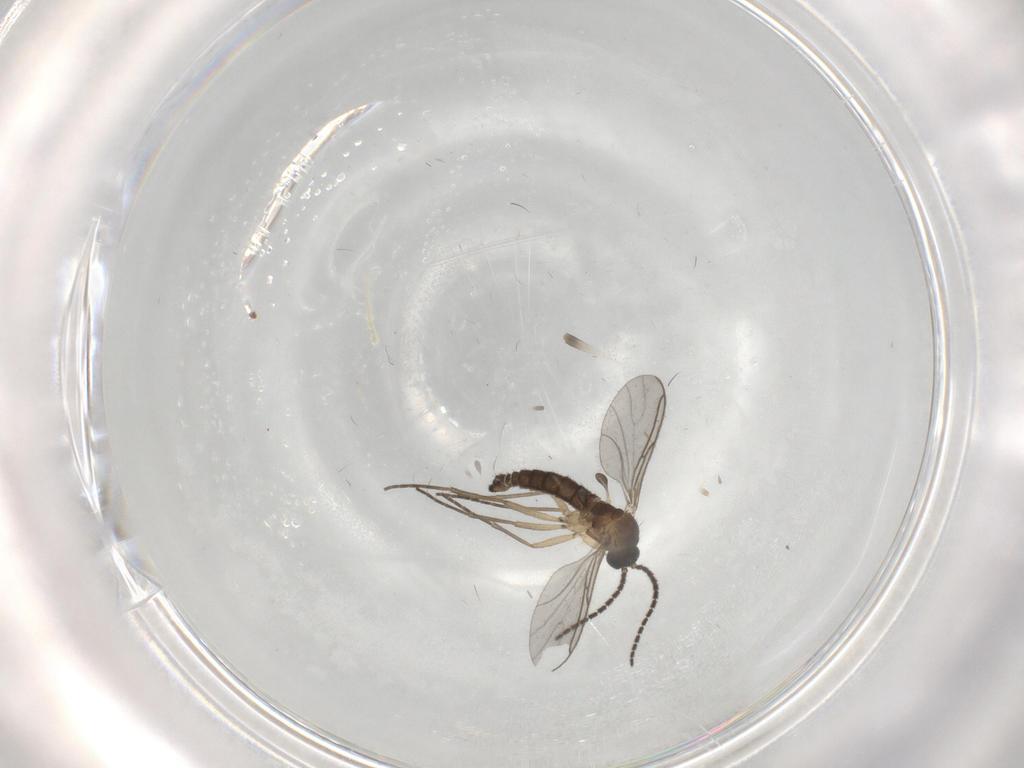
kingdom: Animalia
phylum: Arthropoda
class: Insecta
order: Diptera
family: Sciaridae
